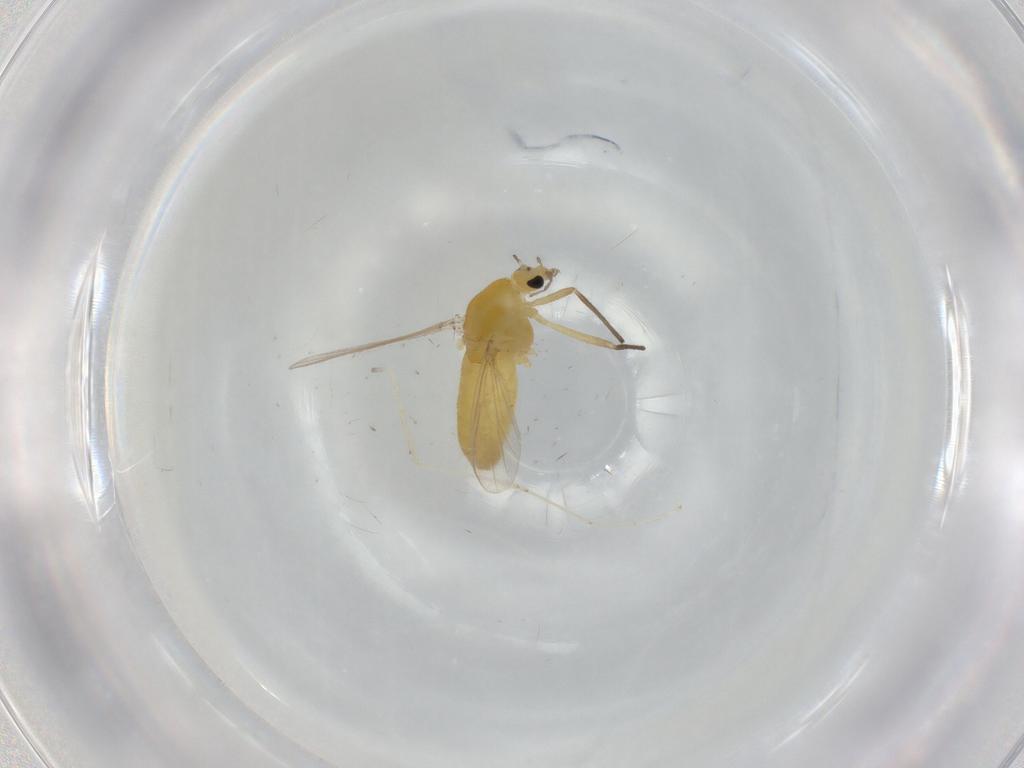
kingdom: Animalia
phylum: Arthropoda
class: Insecta
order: Diptera
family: Chironomidae
